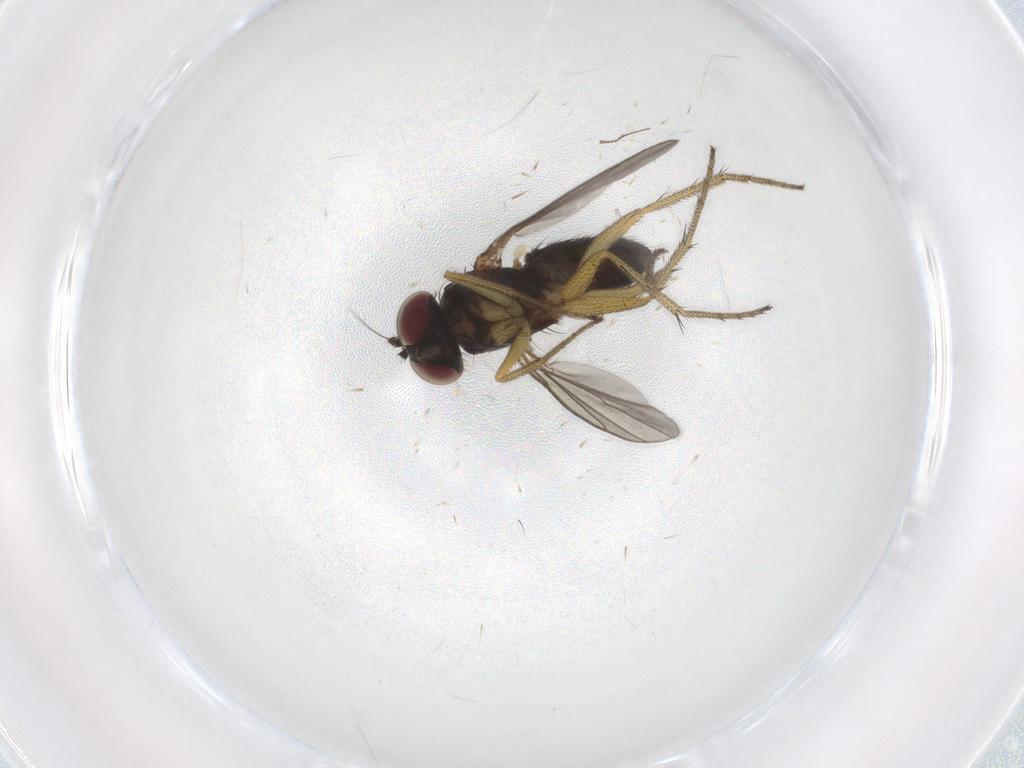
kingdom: Animalia
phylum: Arthropoda
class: Insecta
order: Diptera
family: Dolichopodidae
